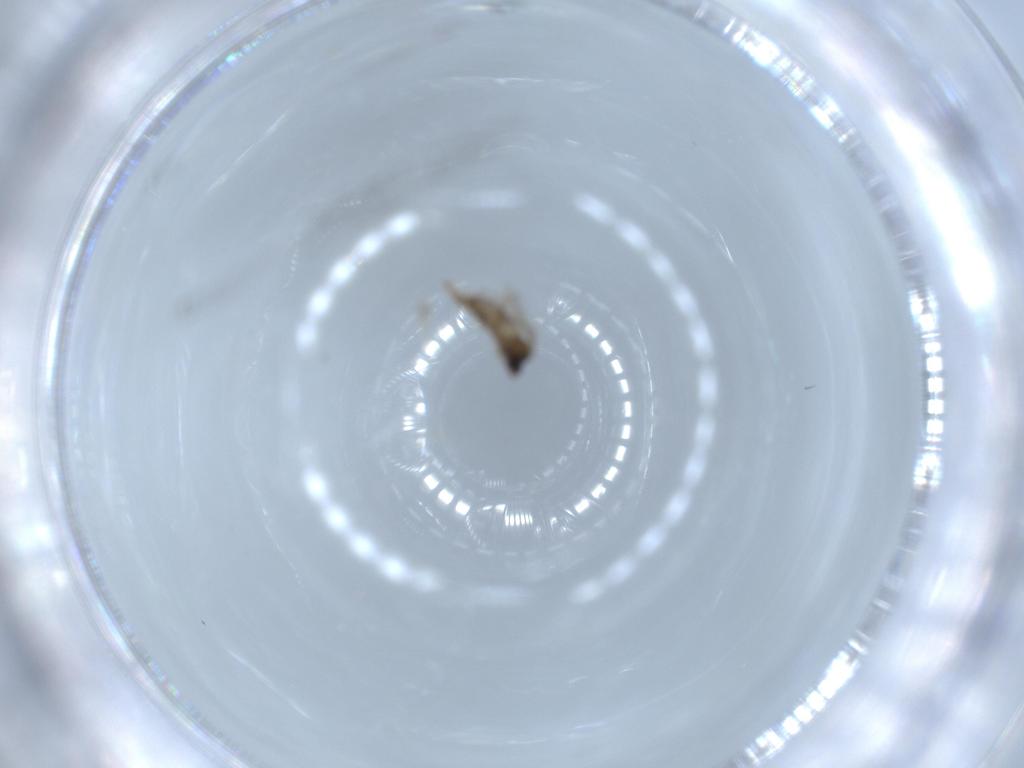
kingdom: Animalia
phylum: Arthropoda
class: Insecta
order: Diptera
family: Cecidomyiidae
